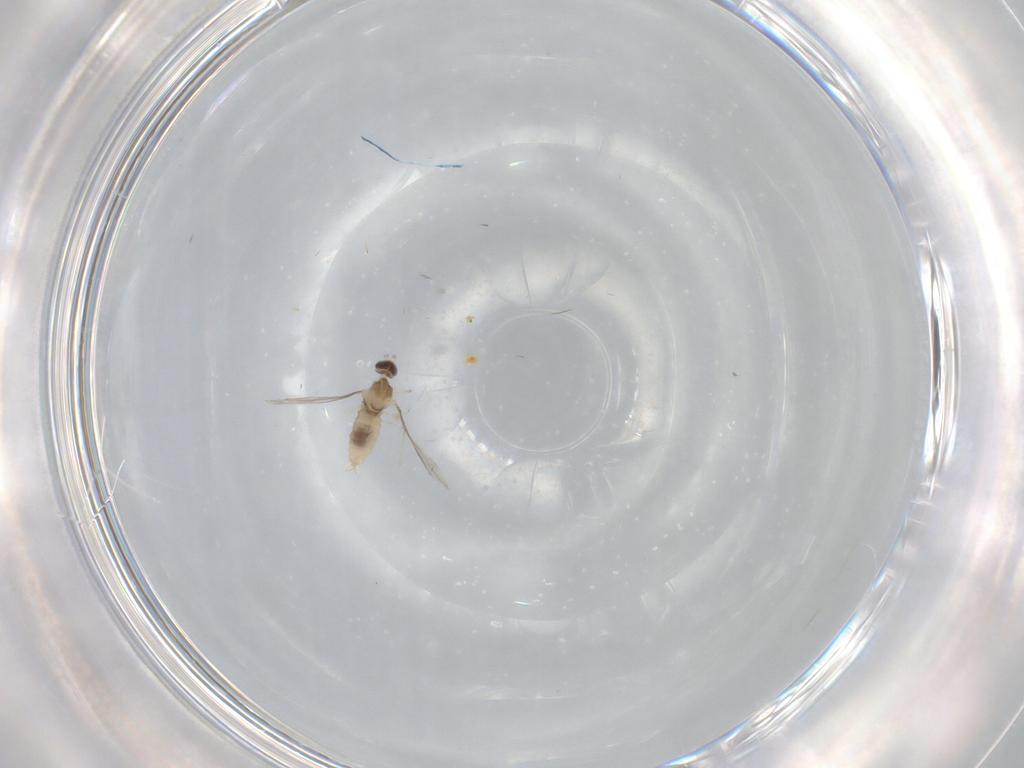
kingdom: Animalia
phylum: Arthropoda
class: Insecta
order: Diptera
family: Cecidomyiidae
